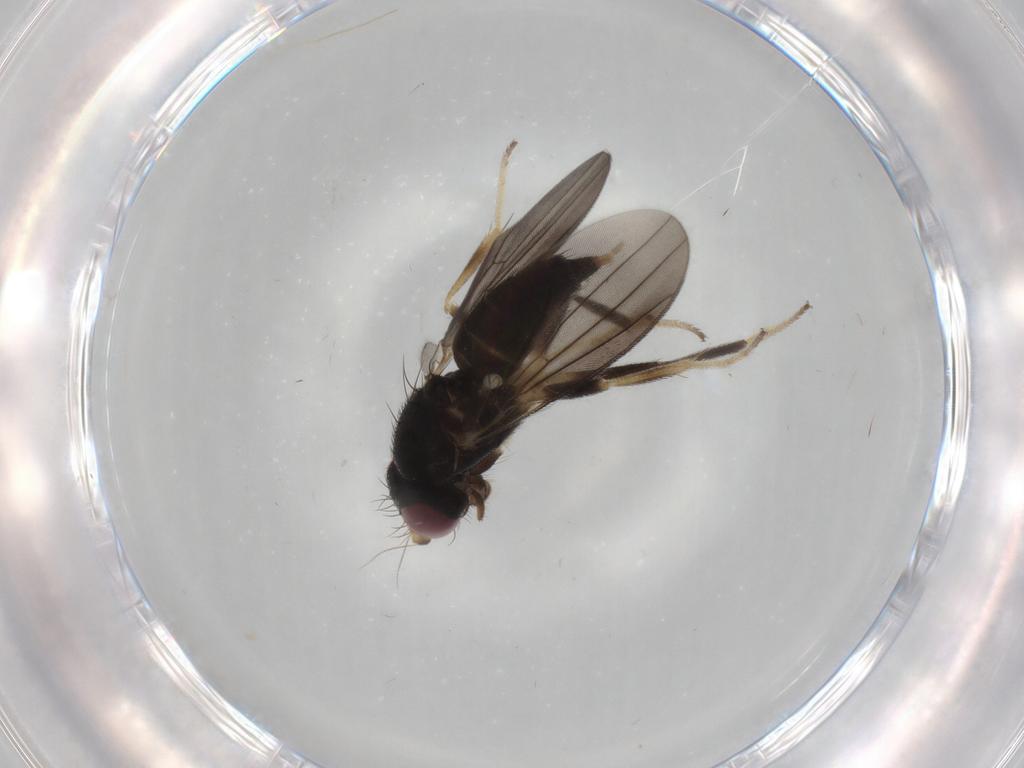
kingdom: Animalia
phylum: Arthropoda
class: Insecta
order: Diptera
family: Clusiidae
